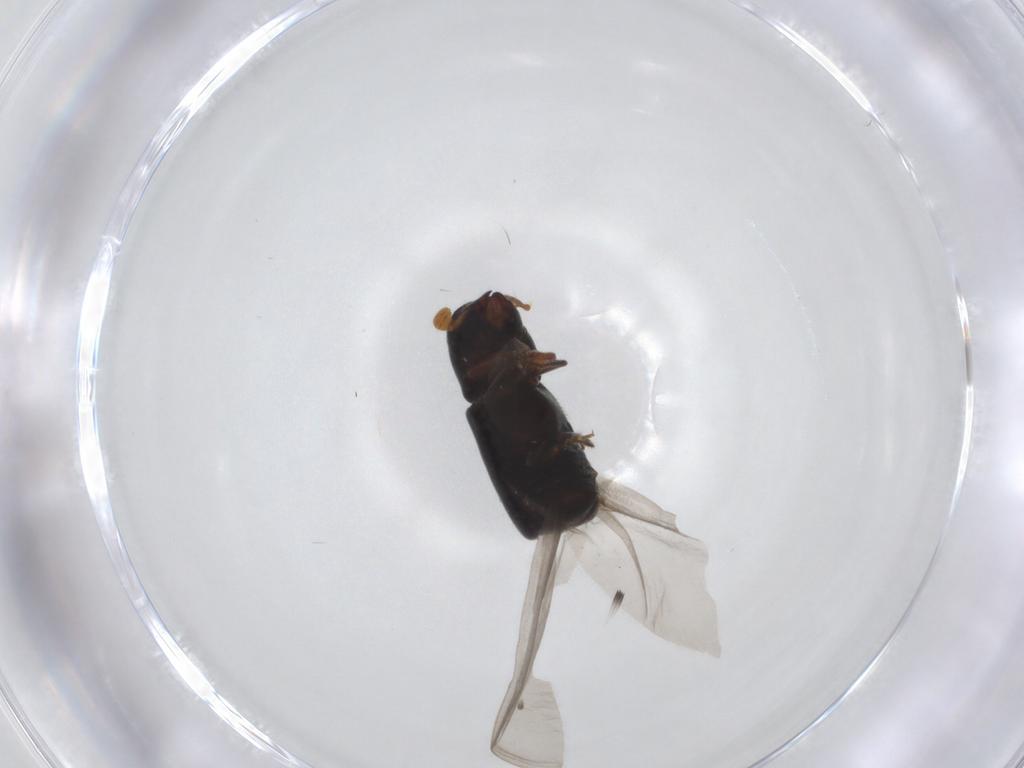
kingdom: Animalia
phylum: Arthropoda
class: Insecta
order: Coleoptera
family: Curculionidae
